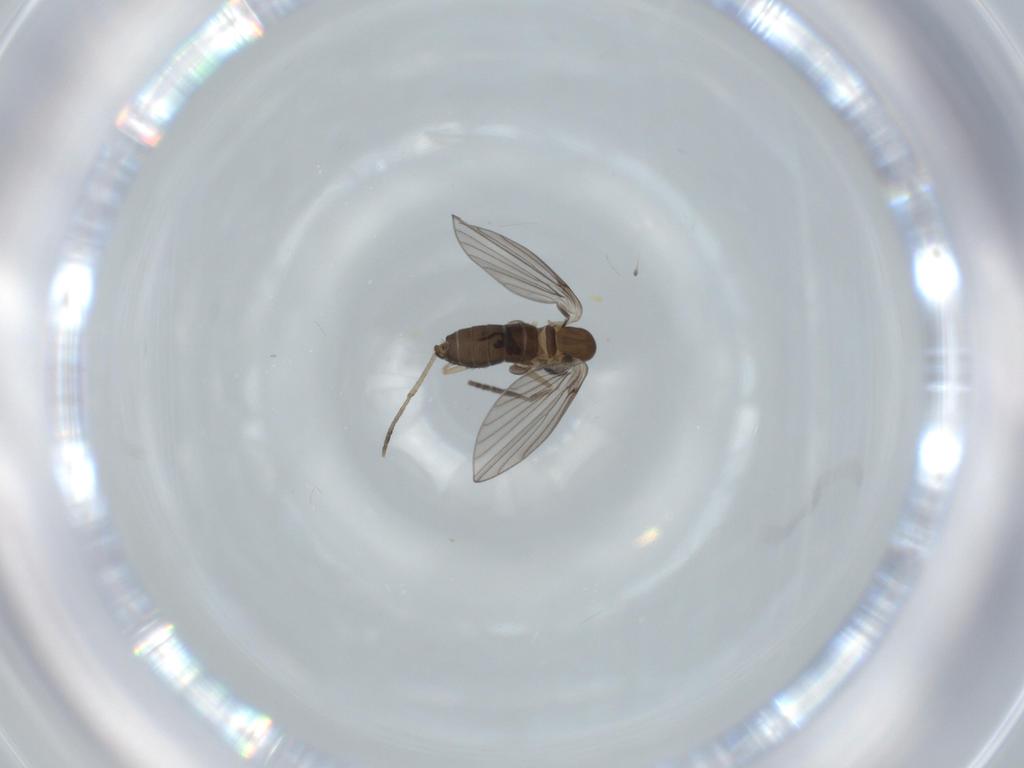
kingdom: Animalia
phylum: Arthropoda
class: Insecta
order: Diptera
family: Psychodidae
